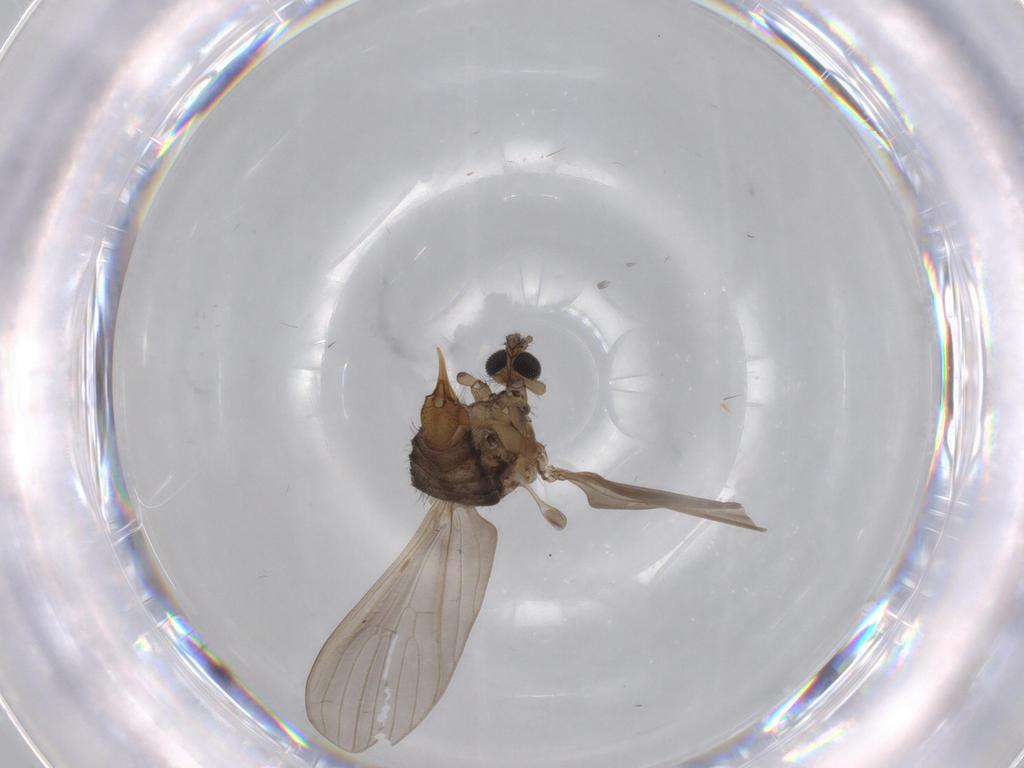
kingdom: Animalia
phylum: Arthropoda
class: Insecta
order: Diptera
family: Limoniidae
